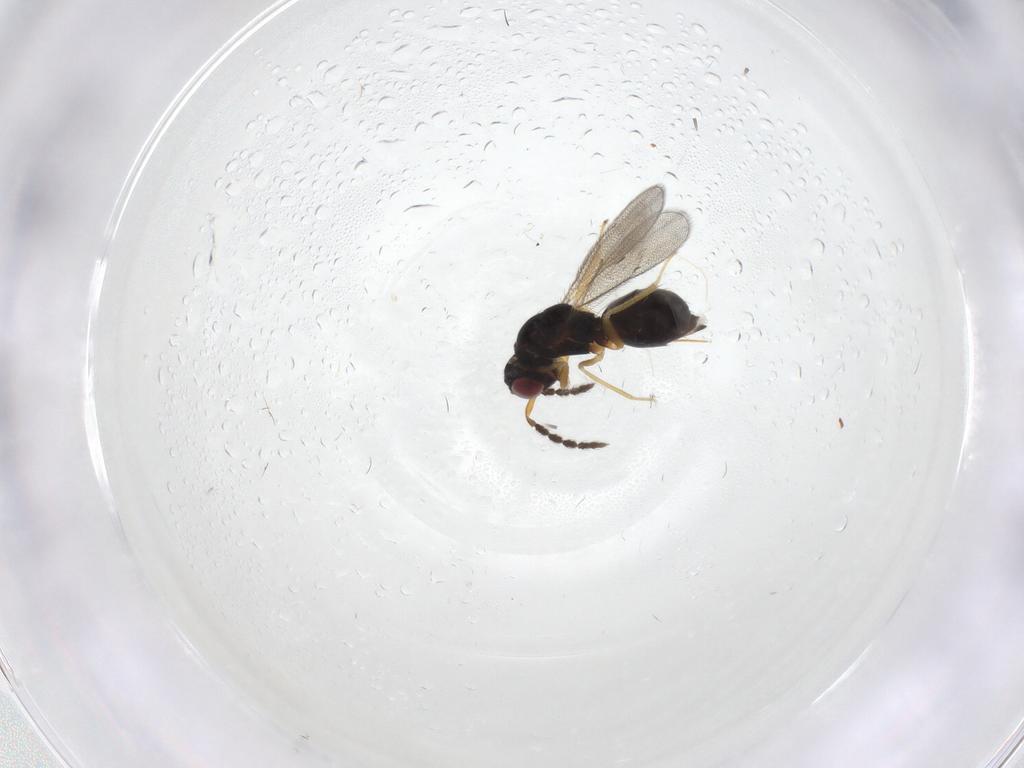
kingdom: Animalia
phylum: Arthropoda
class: Insecta
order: Hymenoptera
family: Eulophidae
